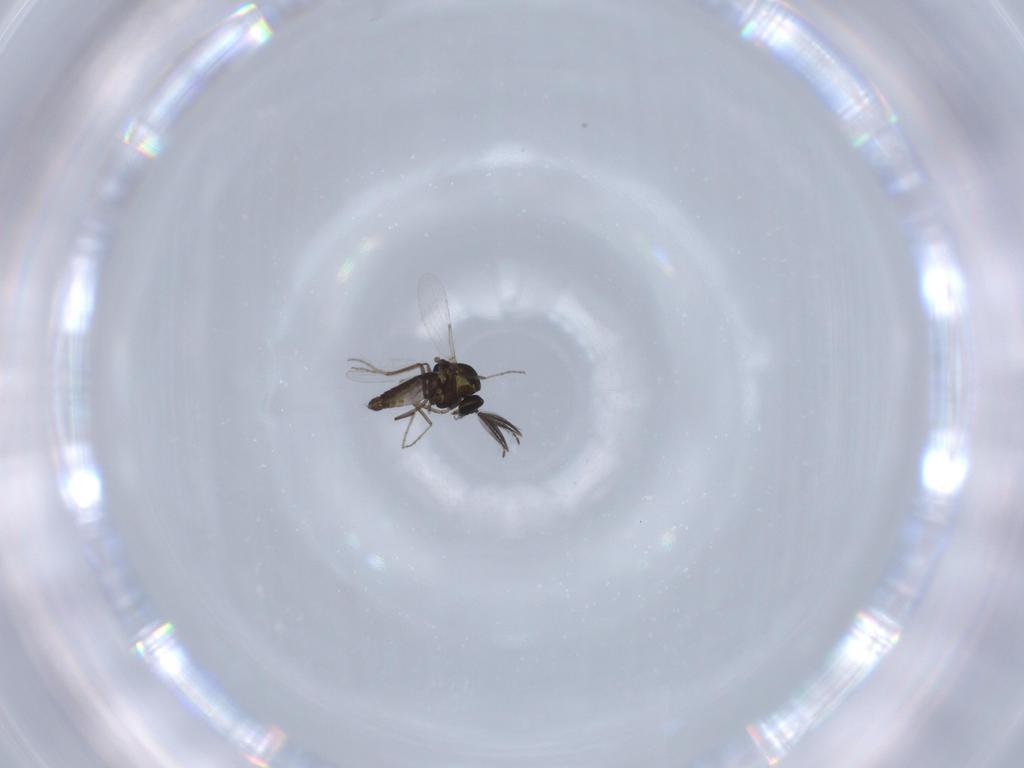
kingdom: Animalia
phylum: Arthropoda
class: Insecta
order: Diptera
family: Ceratopogonidae
